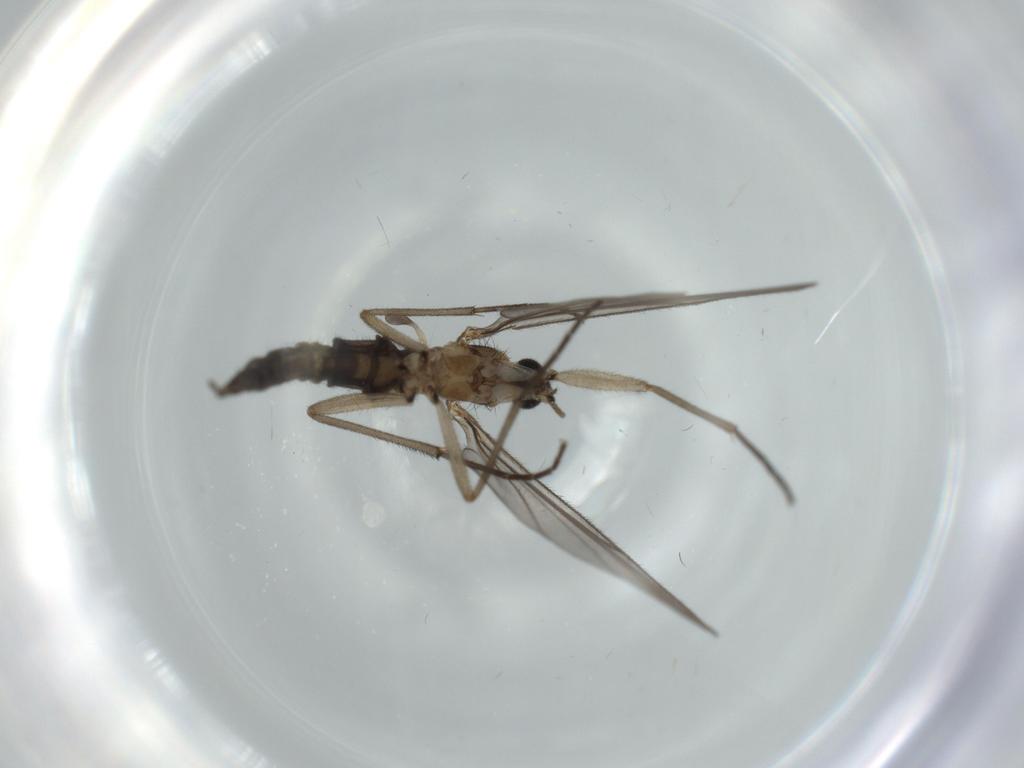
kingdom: Animalia
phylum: Arthropoda
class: Insecta
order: Diptera
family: Sciaridae
